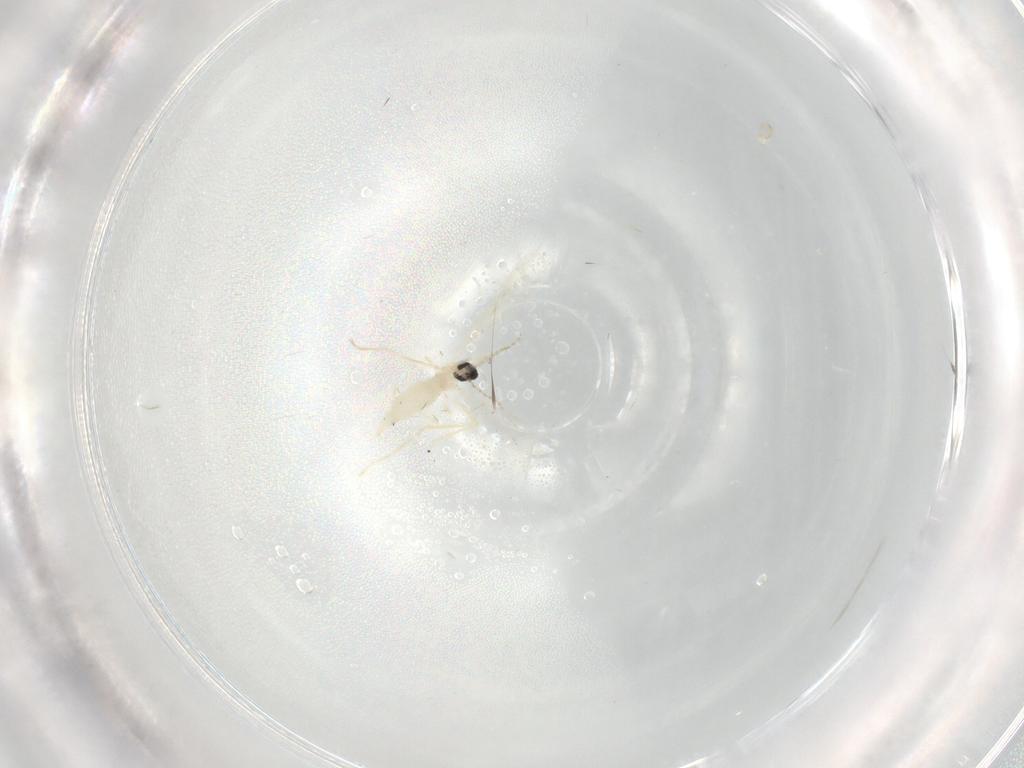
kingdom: Animalia
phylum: Arthropoda
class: Insecta
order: Diptera
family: Cecidomyiidae
